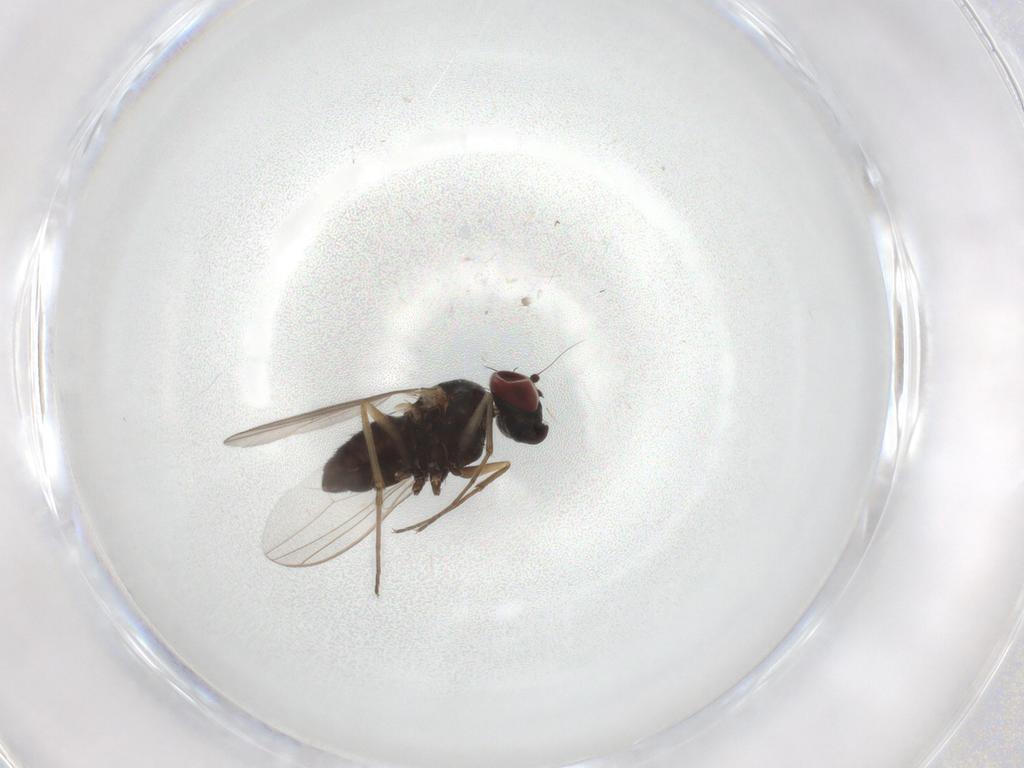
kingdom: Animalia
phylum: Arthropoda
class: Insecta
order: Diptera
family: Dolichopodidae
